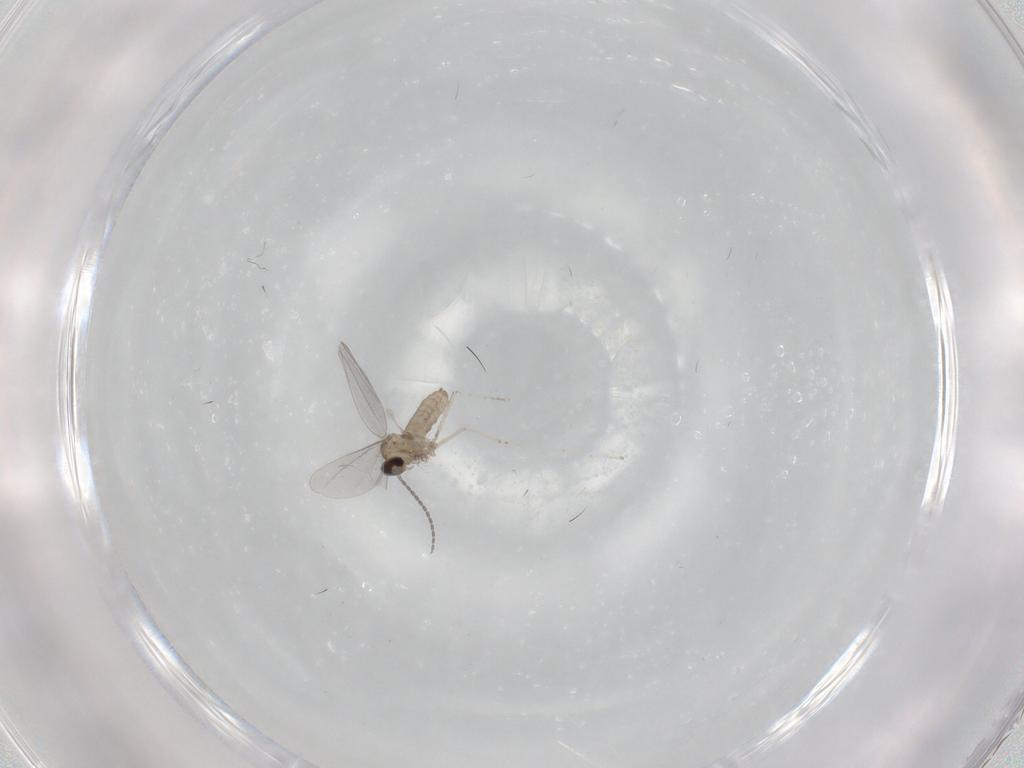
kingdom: Animalia
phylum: Arthropoda
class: Insecta
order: Diptera
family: Cecidomyiidae
